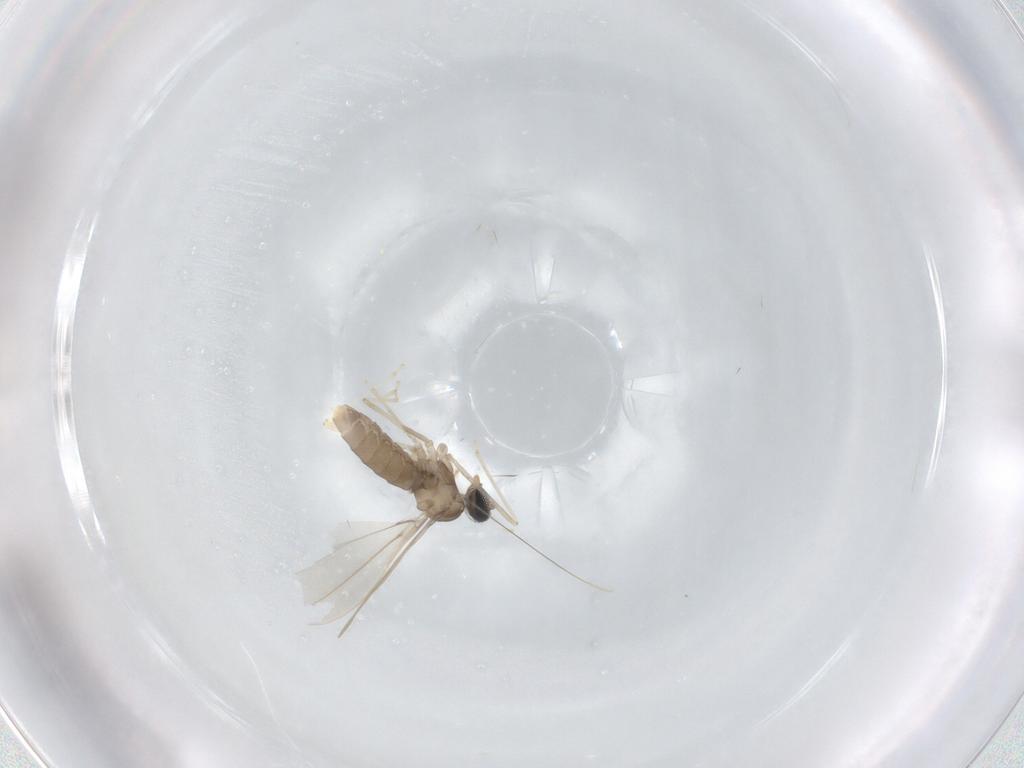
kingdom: Animalia
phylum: Arthropoda
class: Insecta
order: Diptera
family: Cecidomyiidae
